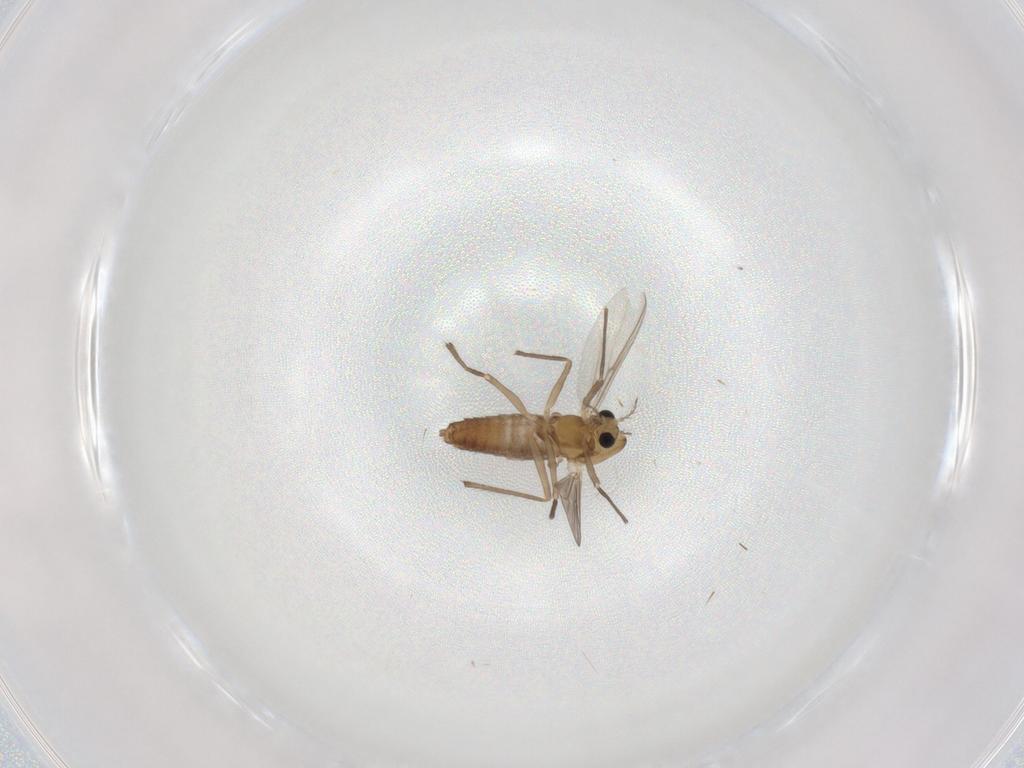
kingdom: Animalia
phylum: Arthropoda
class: Insecta
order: Diptera
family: Chironomidae
